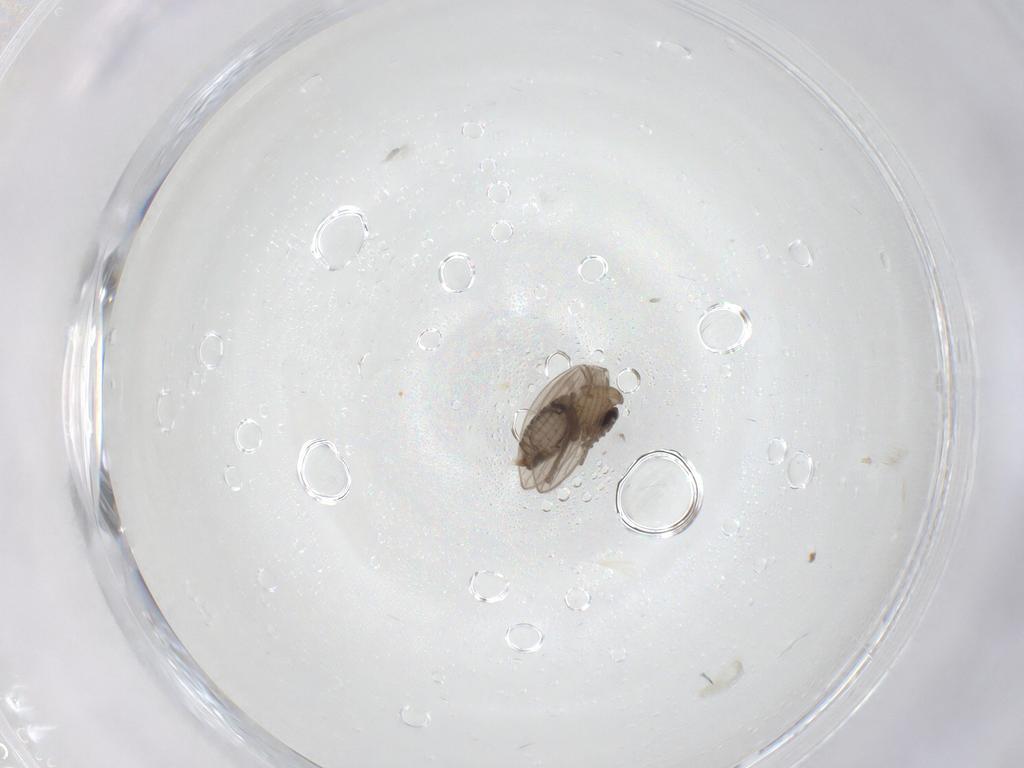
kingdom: Animalia
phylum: Arthropoda
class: Insecta
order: Diptera
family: Psychodidae
